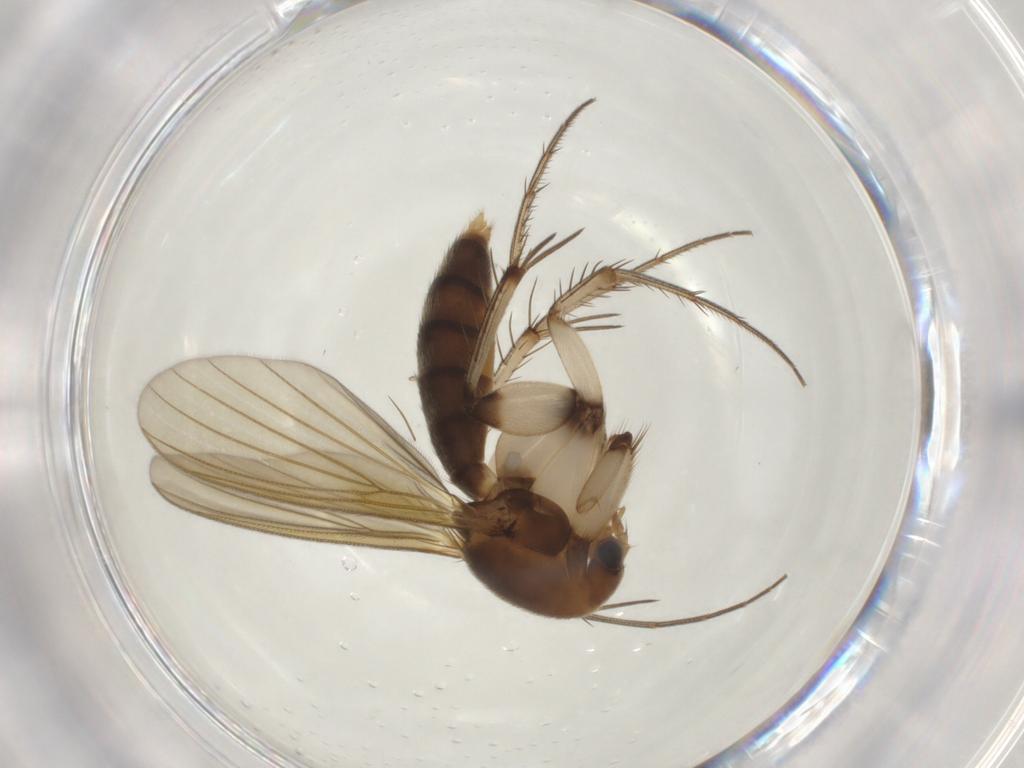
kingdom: Animalia
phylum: Arthropoda
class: Insecta
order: Diptera
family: Mycetophilidae
